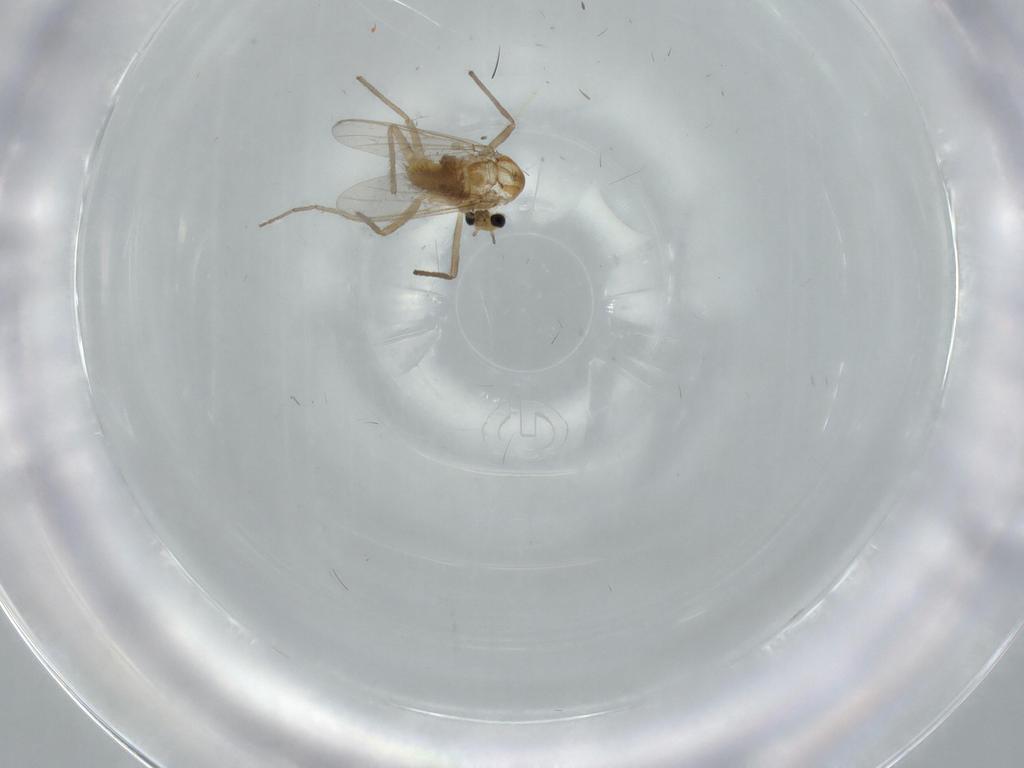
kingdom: Animalia
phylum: Arthropoda
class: Insecta
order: Diptera
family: Chironomidae
